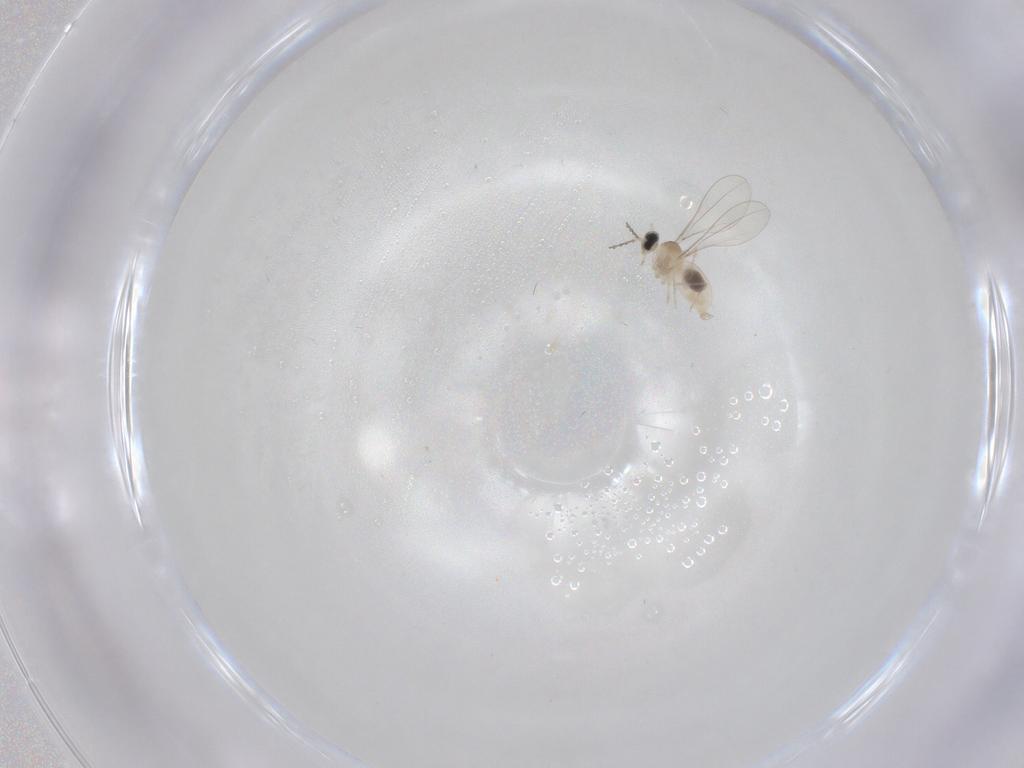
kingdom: Animalia
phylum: Arthropoda
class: Insecta
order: Diptera
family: Cecidomyiidae
